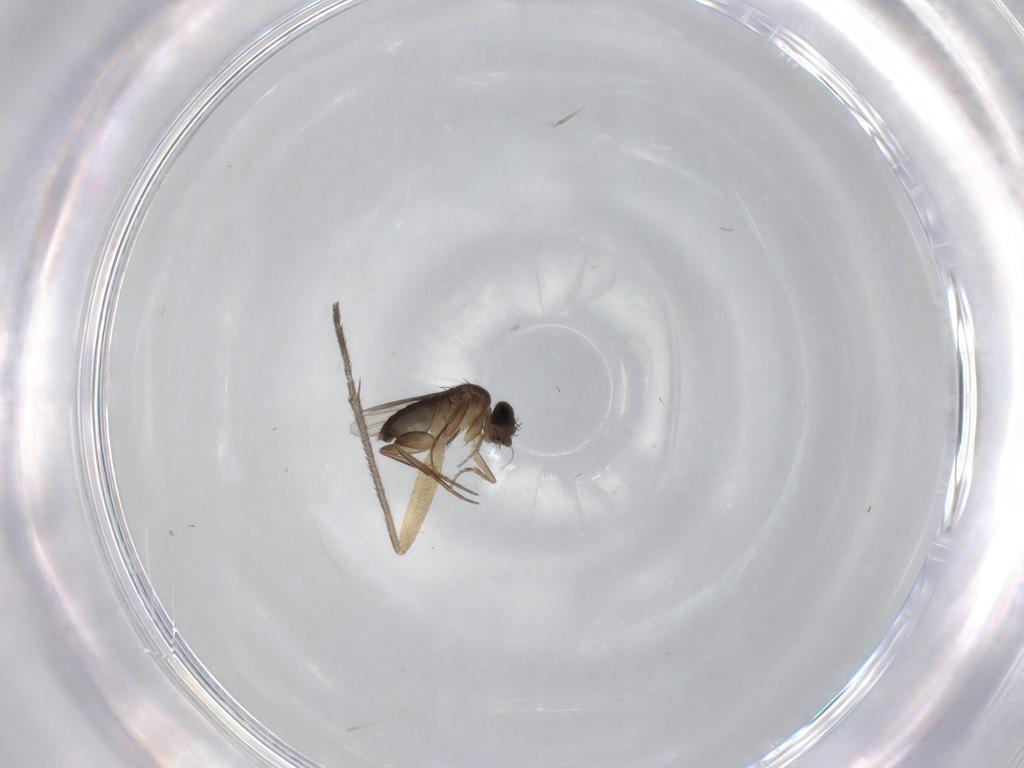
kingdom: Animalia
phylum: Arthropoda
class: Insecta
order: Diptera
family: Phoridae
